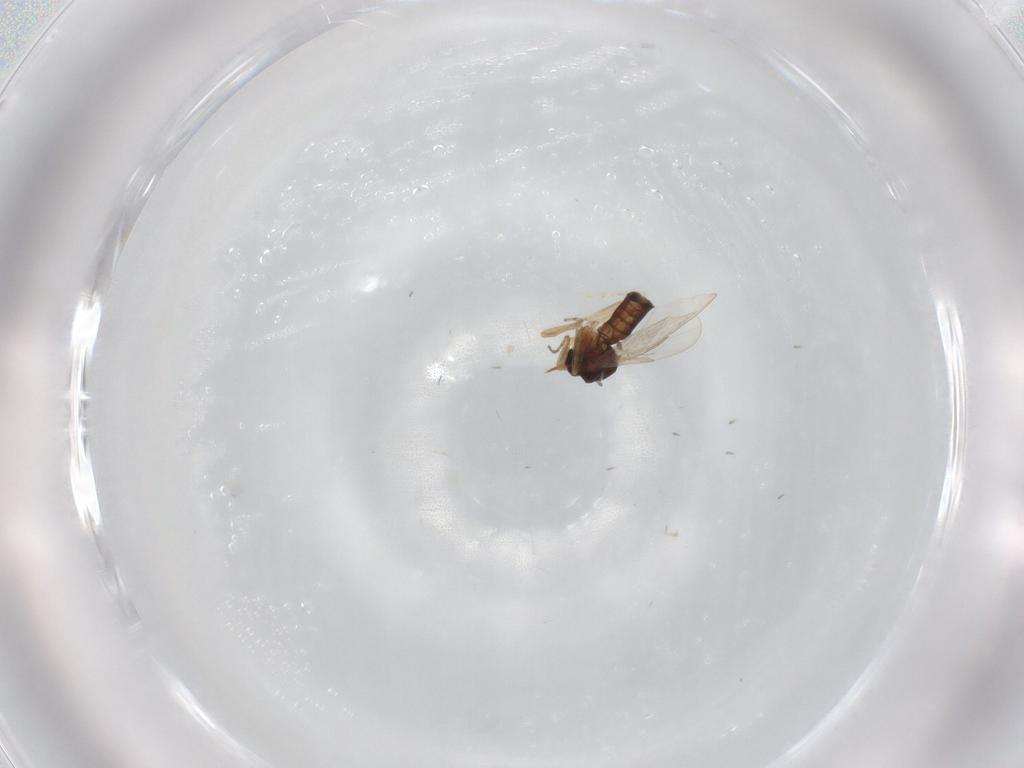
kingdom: Animalia
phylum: Arthropoda
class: Insecta
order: Diptera
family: Ceratopogonidae
